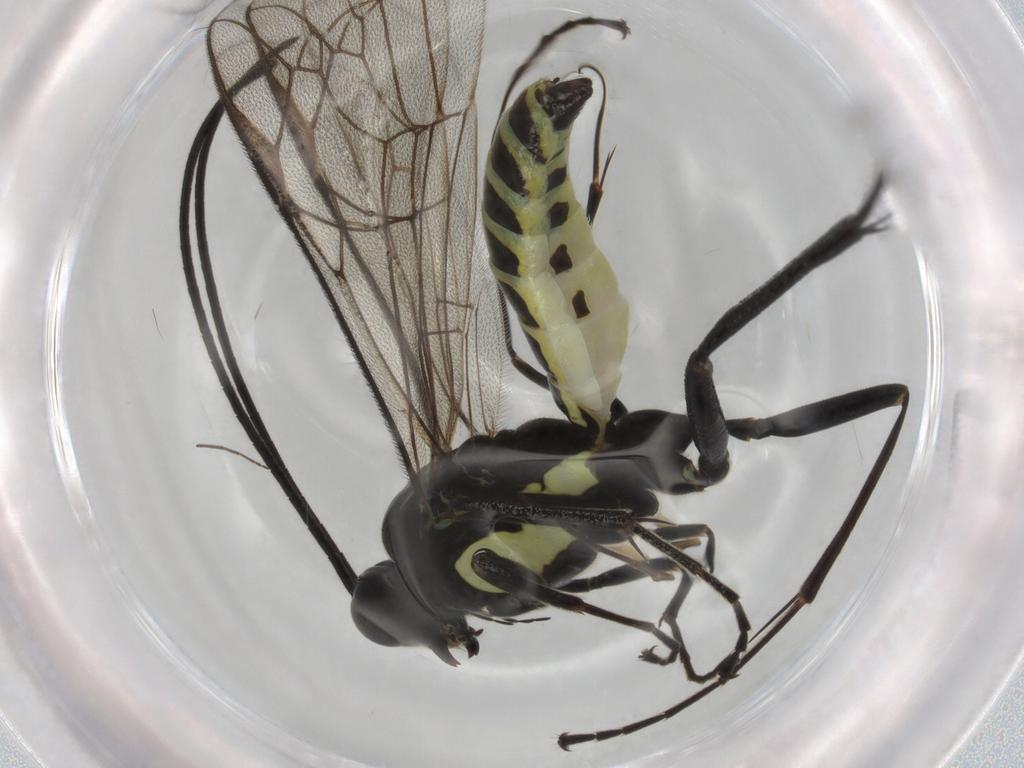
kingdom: Animalia
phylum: Arthropoda
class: Insecta
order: Hymenoptera
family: Ichneumonidae
